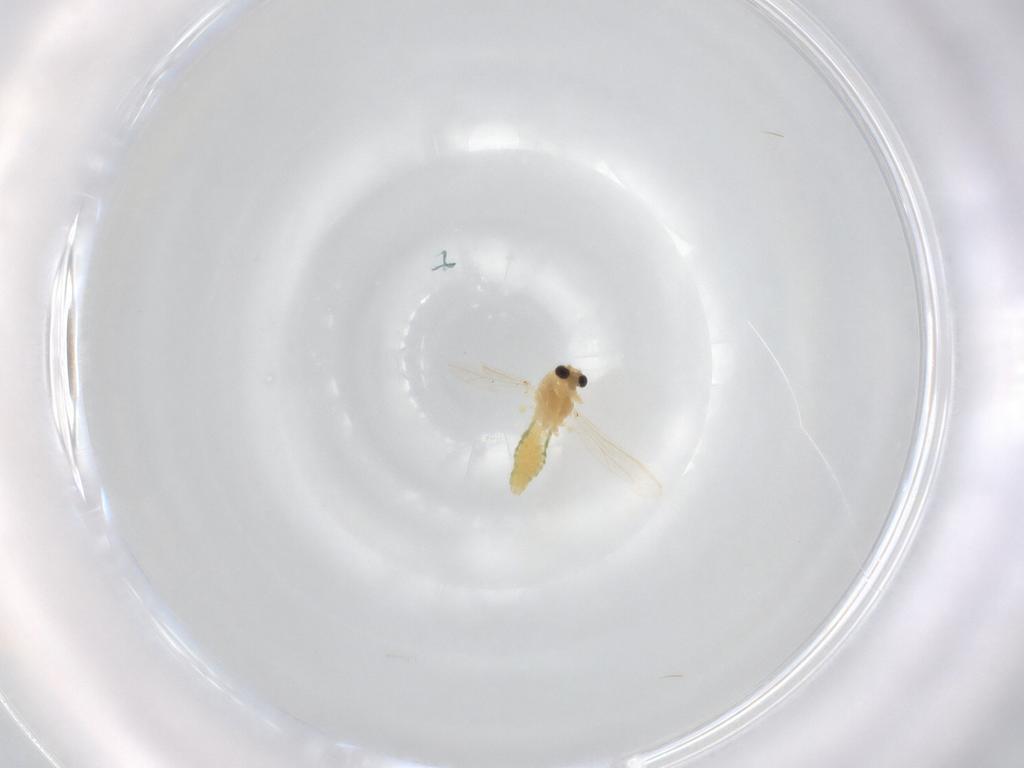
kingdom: Animalia
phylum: Arthropoda
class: Insecta
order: Diptera
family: Chironomidae
